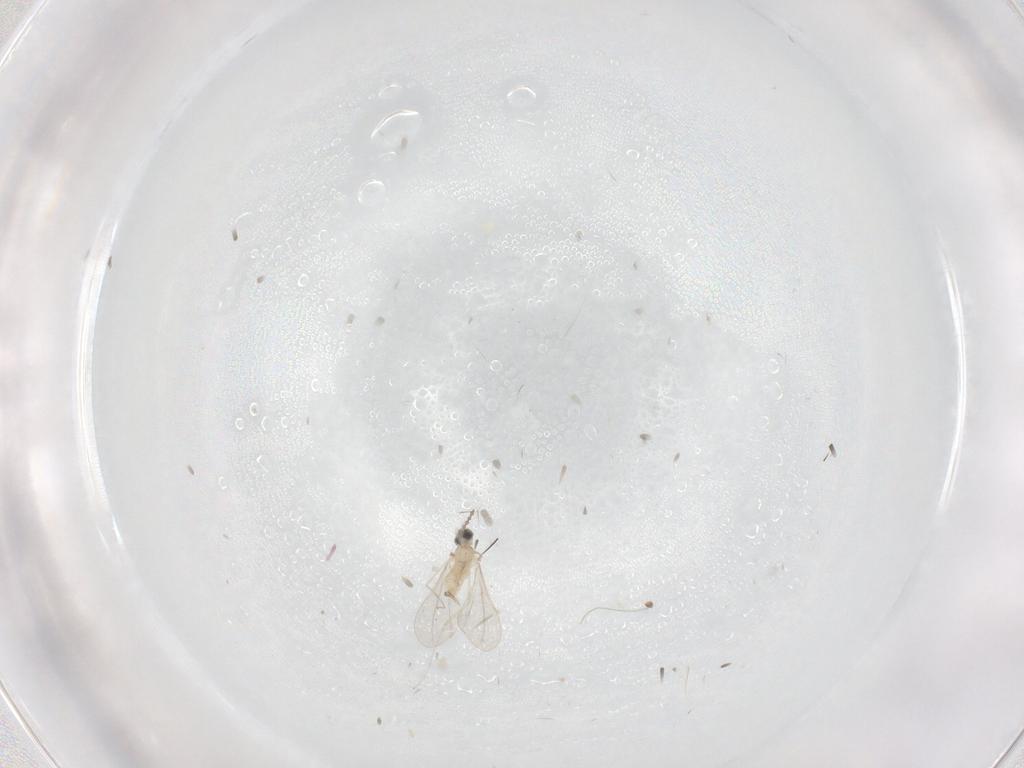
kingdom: Animalia
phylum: Arthropoda
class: Insecta
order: Diptera
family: Cecidomyiidae
